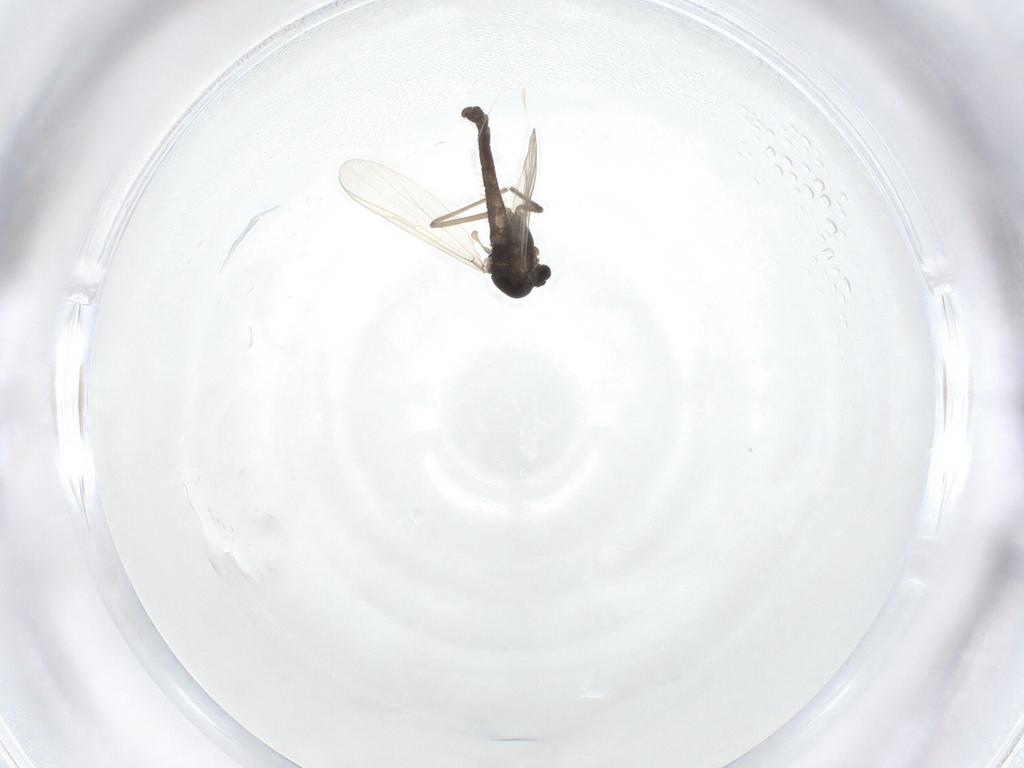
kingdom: Animalia
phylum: Arthropoda
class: Insecta
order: Diptera
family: Chironomidae
